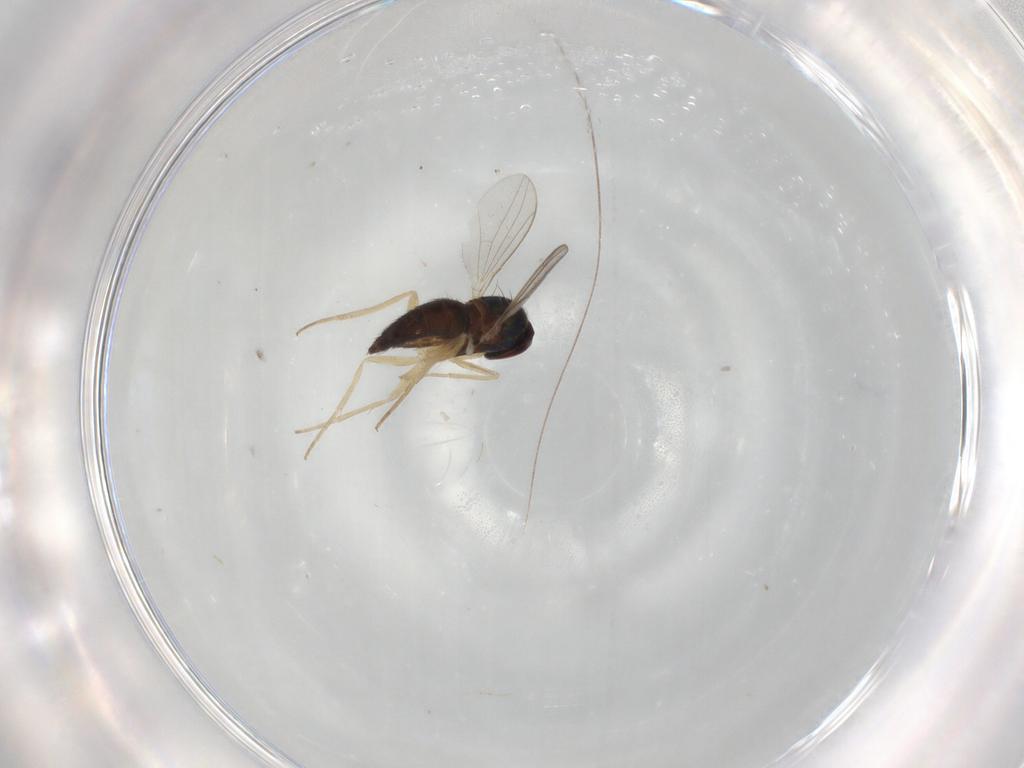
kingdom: Animalia
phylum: Arthropoda
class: Insecta
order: Diptera
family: Dolichopodidae
